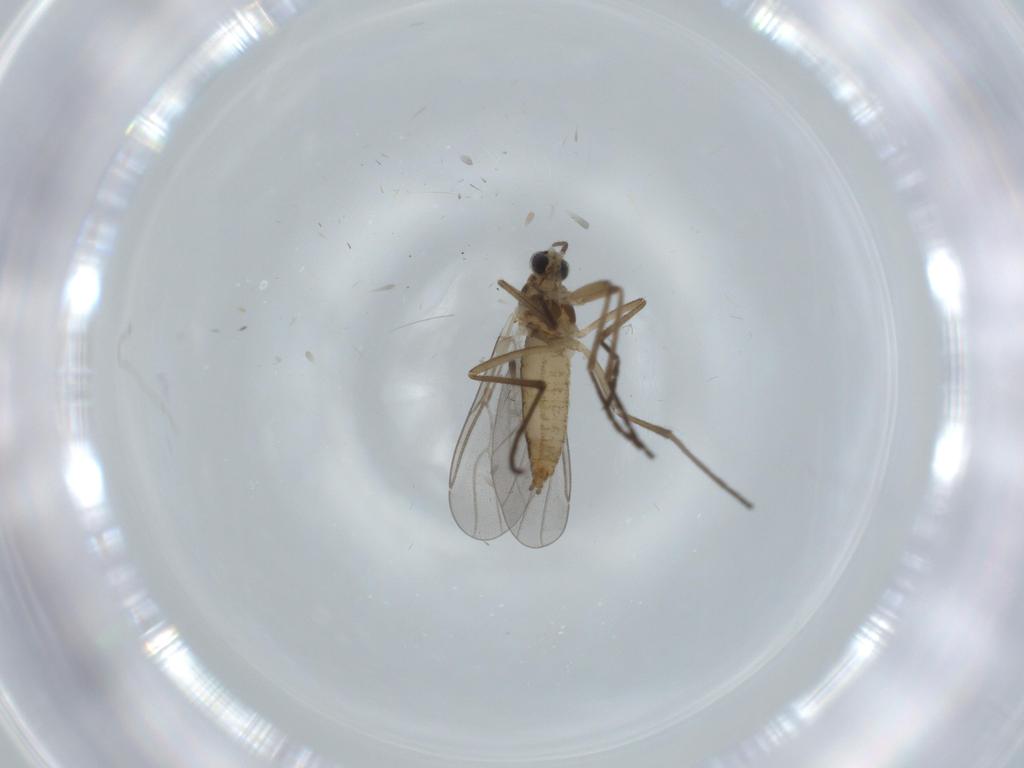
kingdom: Animalia
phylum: Arthropoda
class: Insecta
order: Diptera
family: Cecidomyiidae
